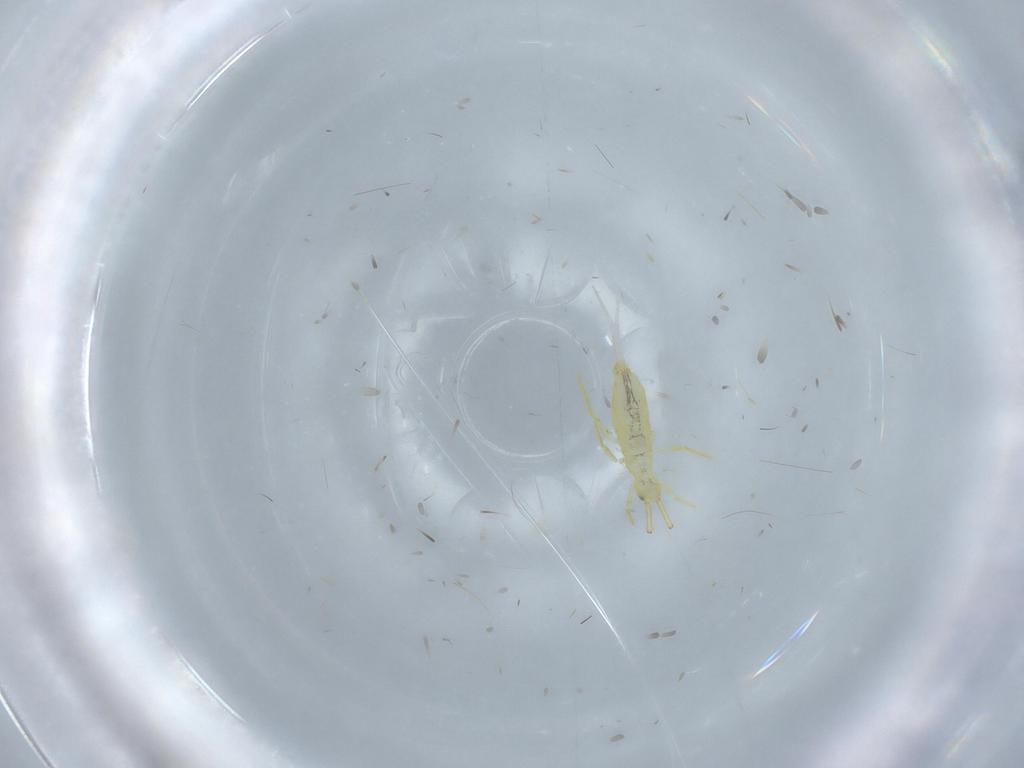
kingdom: Animalia
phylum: Arthropoda
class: Collembola
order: Entomobryomorpha
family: Paronellidae
